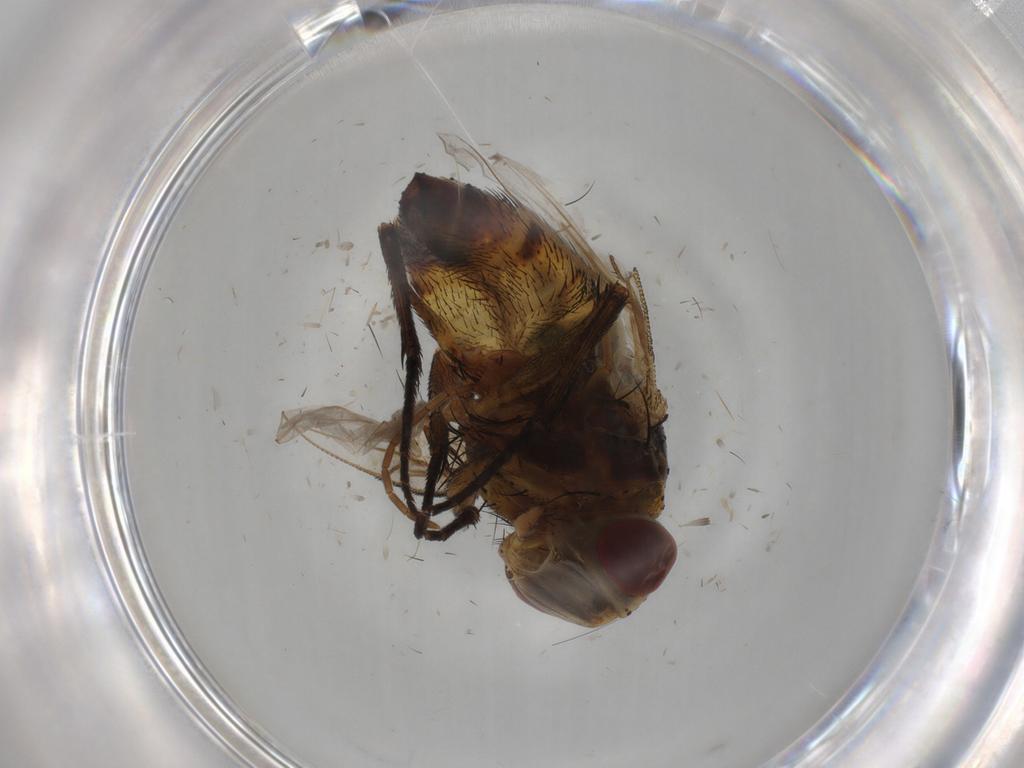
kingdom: Animalia
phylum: Arthropoda
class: Insecta
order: Diptera
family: Glossinidae
